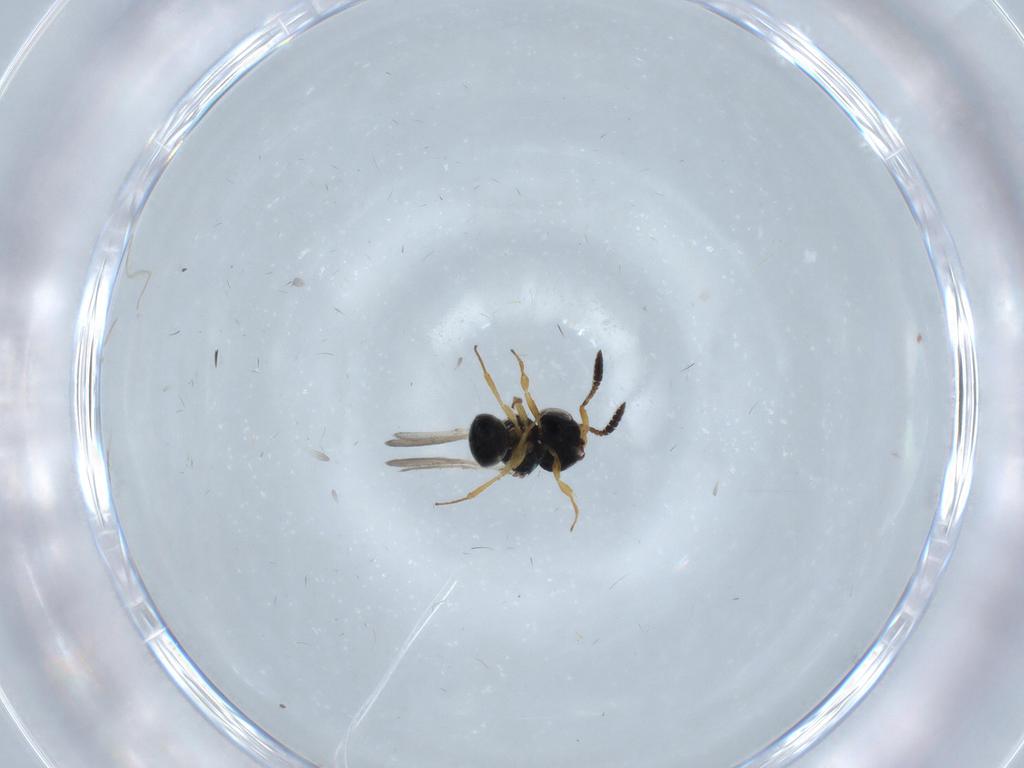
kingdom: Animalia
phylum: Arthropoda
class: Insecta
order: Hymenoptera
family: Scelionidae
